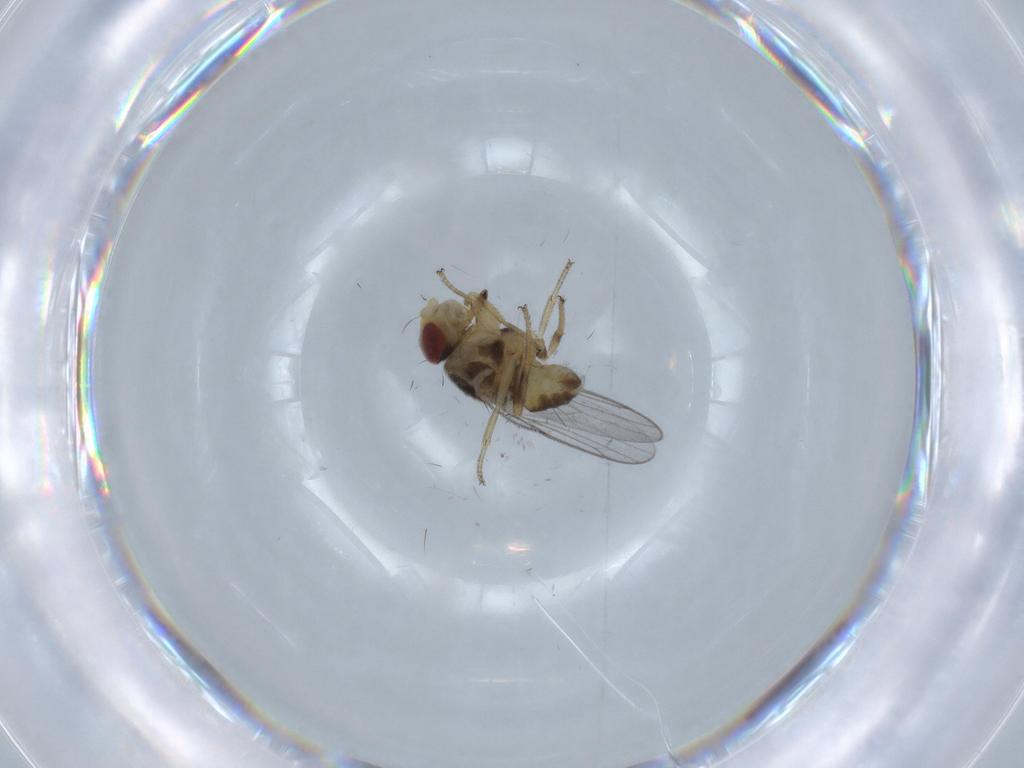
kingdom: Animalia
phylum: Arthropoda
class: Insecta
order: Diptera
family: Chloropidae
